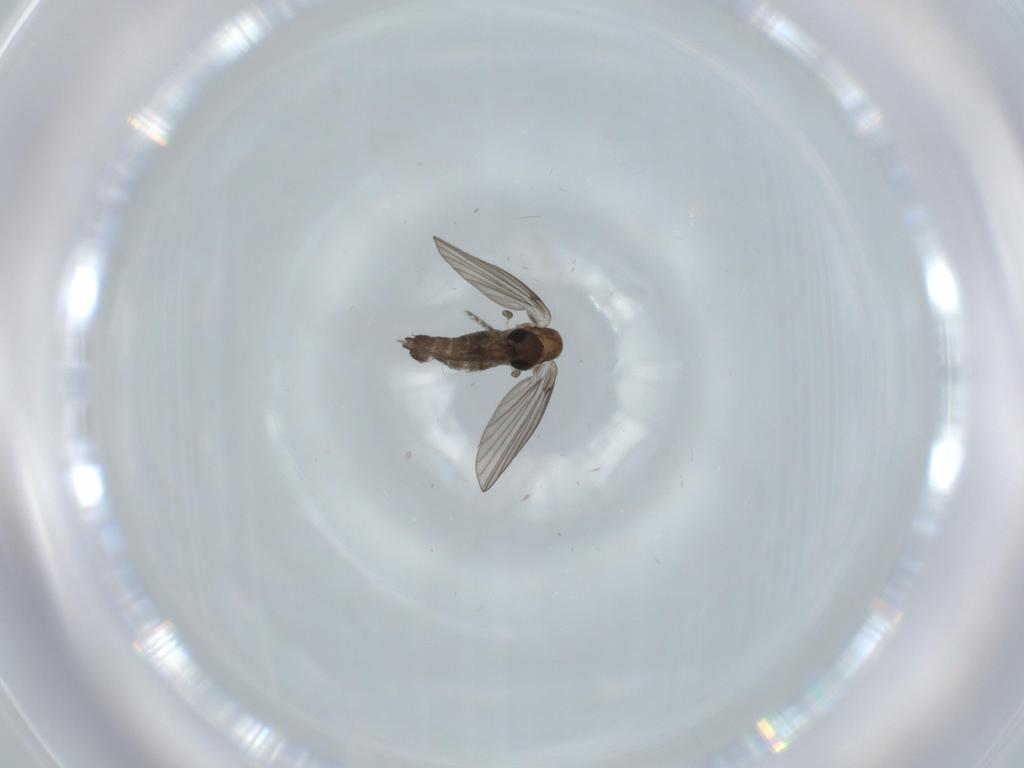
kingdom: Animalia
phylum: Arthropoda
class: Insecta
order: Diptera
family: Psychodidae
